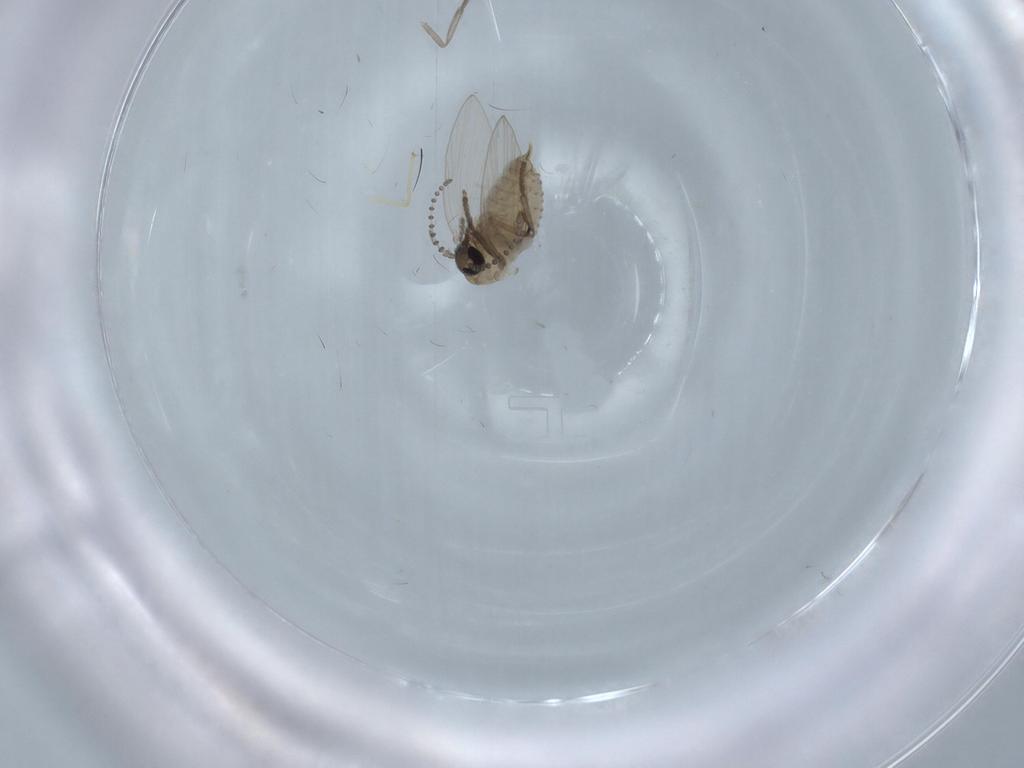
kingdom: Animalia
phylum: Arthropoda
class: Insecta
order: Diptera
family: Psychodidae
